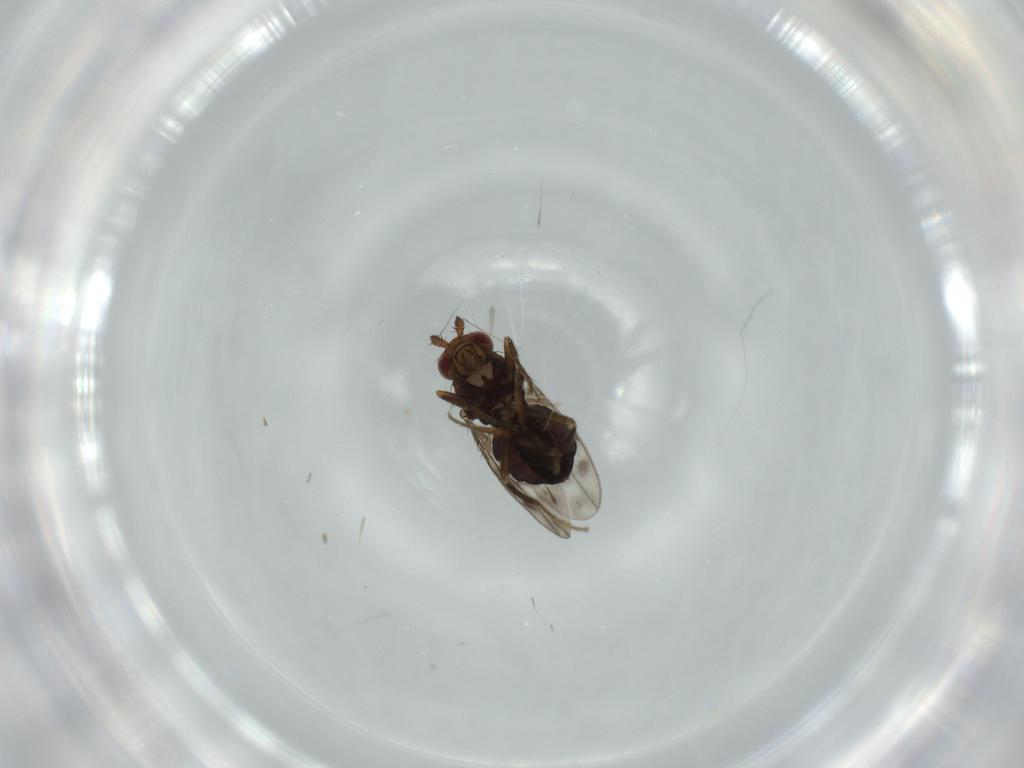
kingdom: Animalia
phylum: Arthropoda
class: Insecta
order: Diptera
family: Sphaeroceridae
